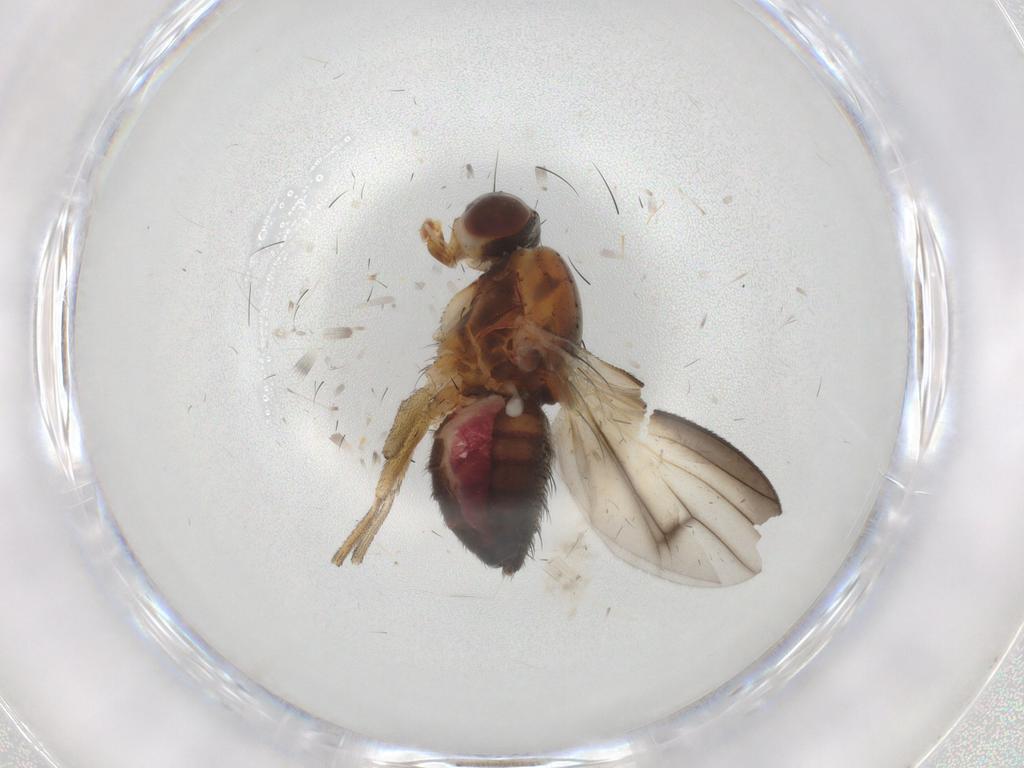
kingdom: Animalia
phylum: Arthropoda
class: Insecta
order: Diptera
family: Heleomyzidae
